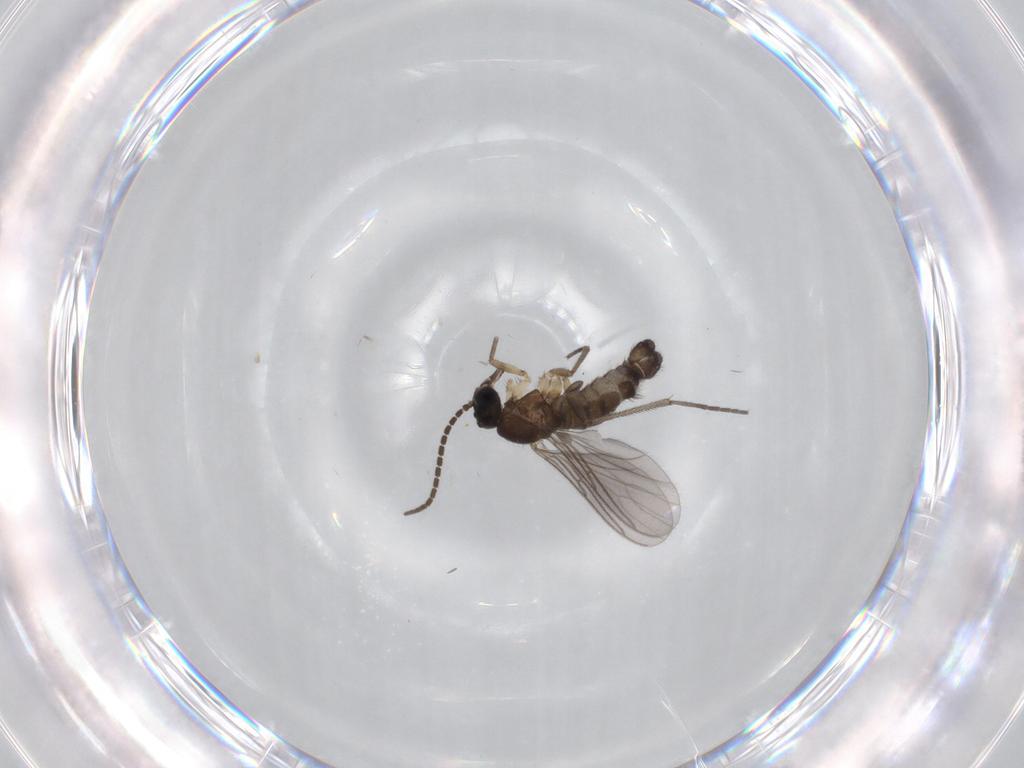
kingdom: Animalia
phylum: Arthropoda
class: Insecta
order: Diptera
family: Sciaridae
